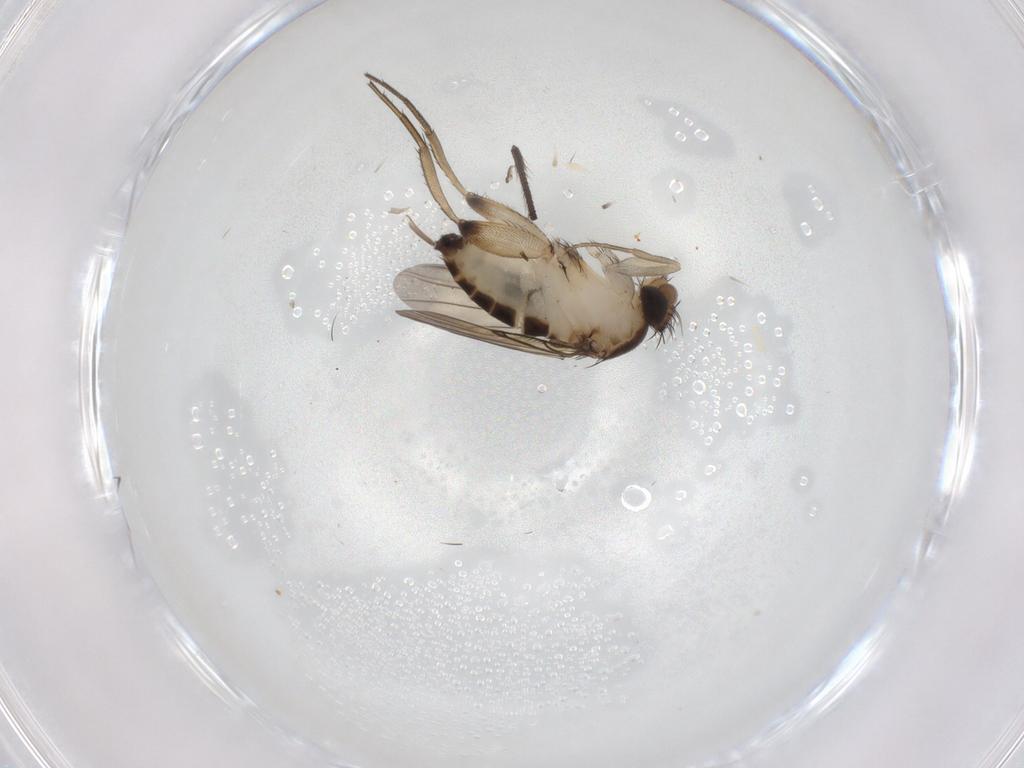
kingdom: Animalia
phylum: Arthropoda
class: Insecta
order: Diptera
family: Phoridae
